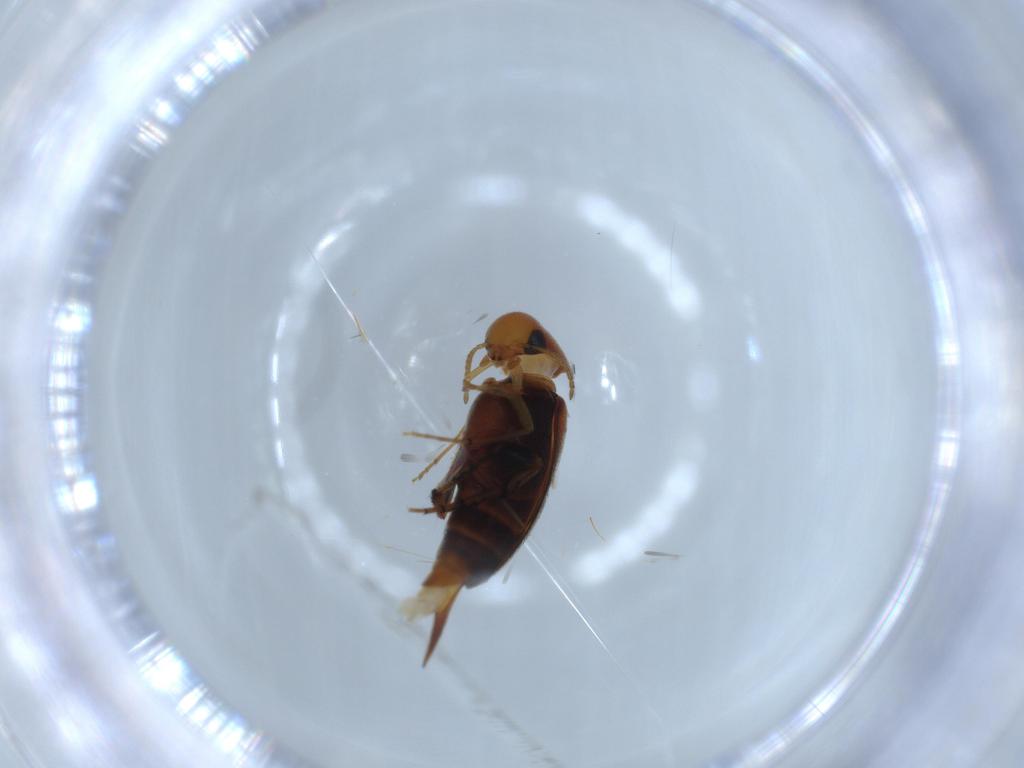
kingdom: Animalia
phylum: Arthropoda
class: Insecta
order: Coleoptera
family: Mordellidae
